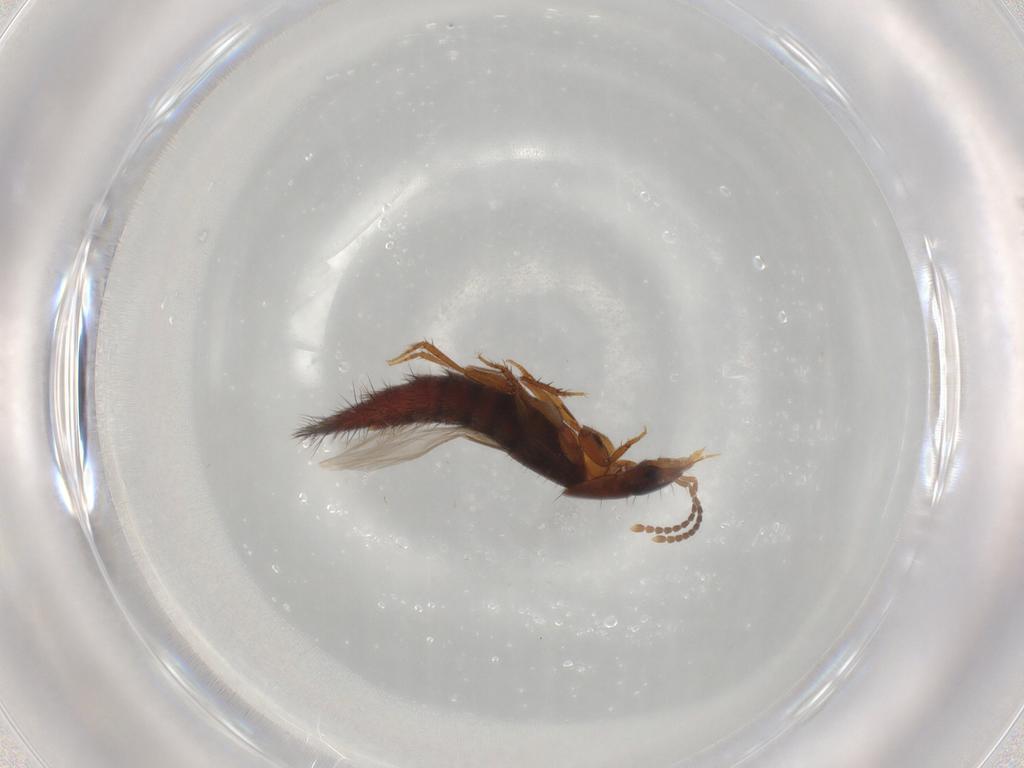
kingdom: Animalia
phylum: Arthropoda
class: Insecta
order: Coleoptera
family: Staphylinidae
